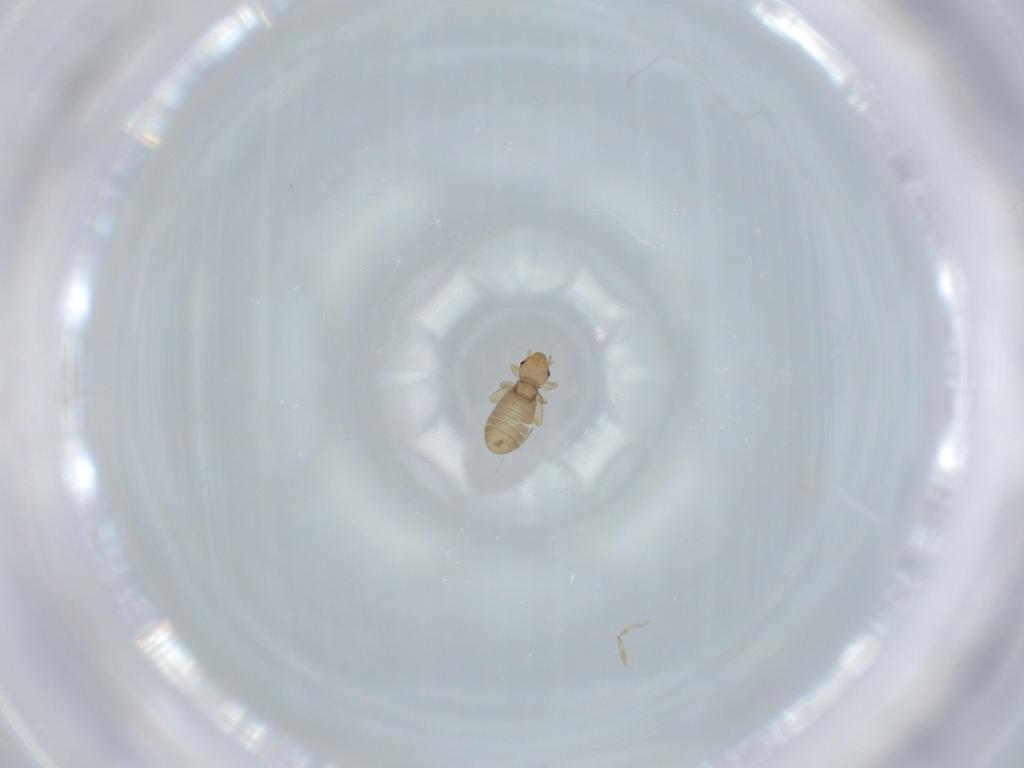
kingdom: Animalia
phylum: Arthropoda
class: Insecta
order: Psocodea
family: Liposcelididae
